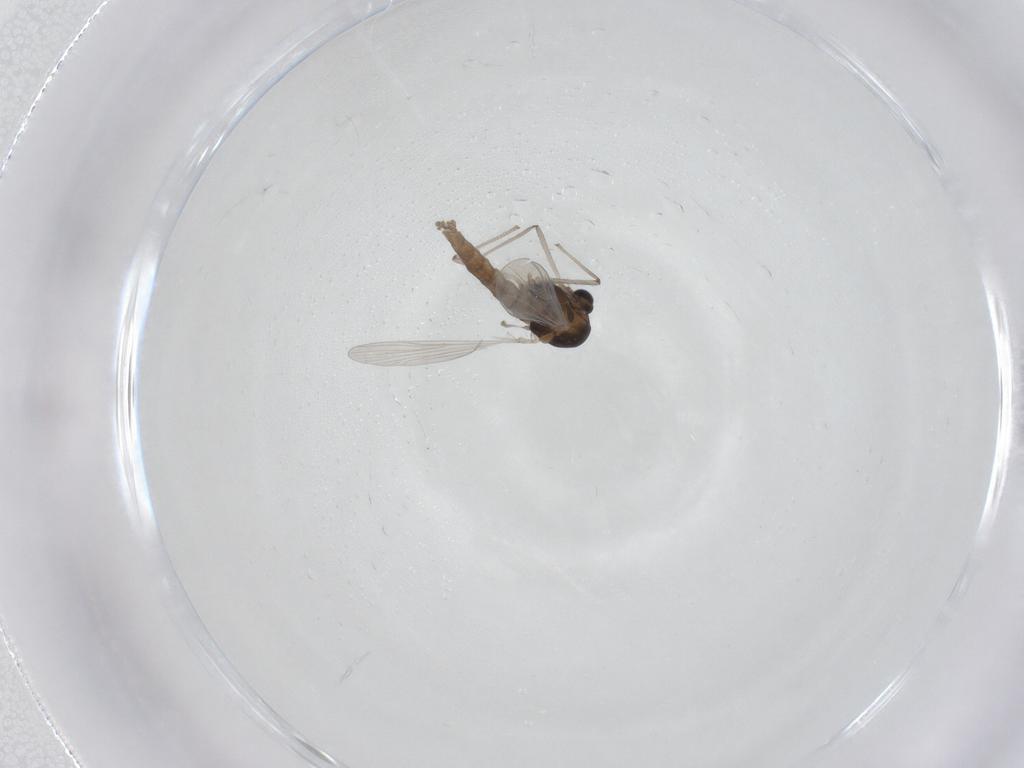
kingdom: Animalia
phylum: Arthropoda
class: Insecta
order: Diptera
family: Chironomidae
